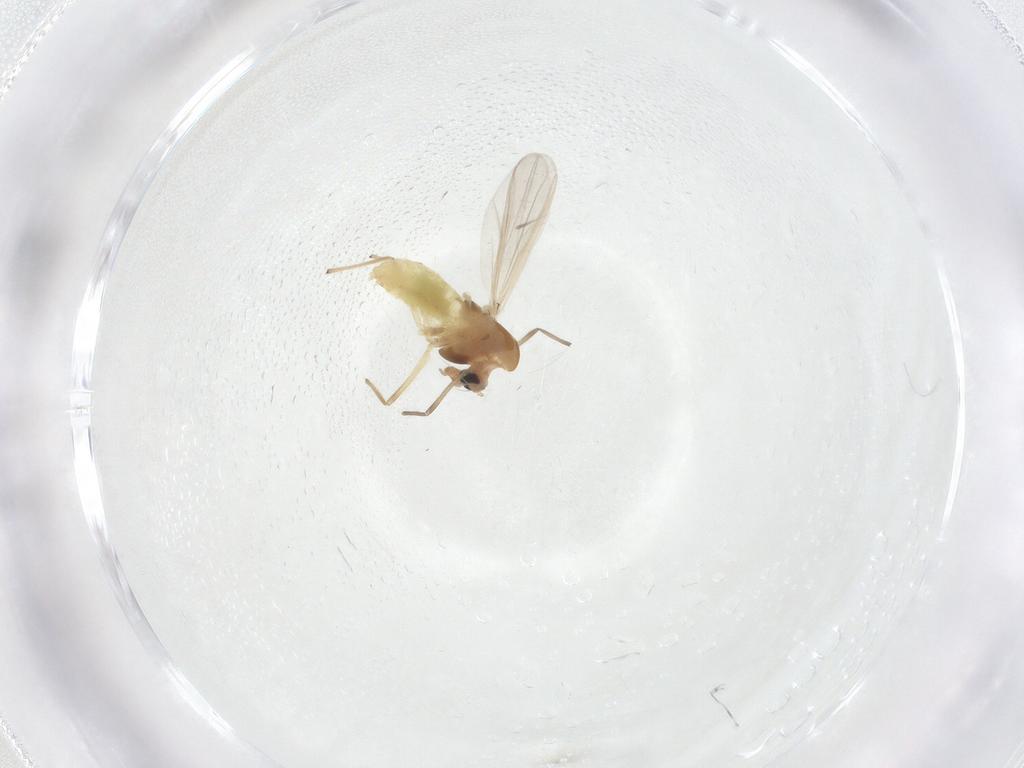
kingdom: Animalia
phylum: Arthropoda
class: Insecta
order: Diptera
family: Chironomidae
